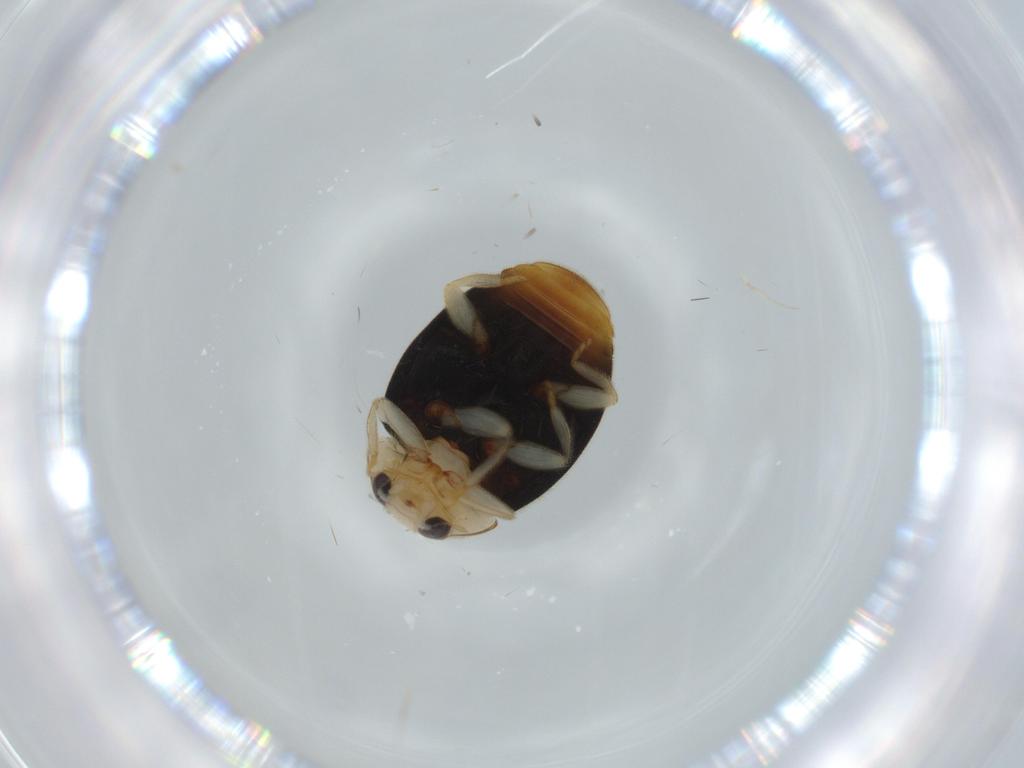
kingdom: Animalia
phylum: Arthropoda
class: Insecta
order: Coleoptera
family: Coccinellidae
